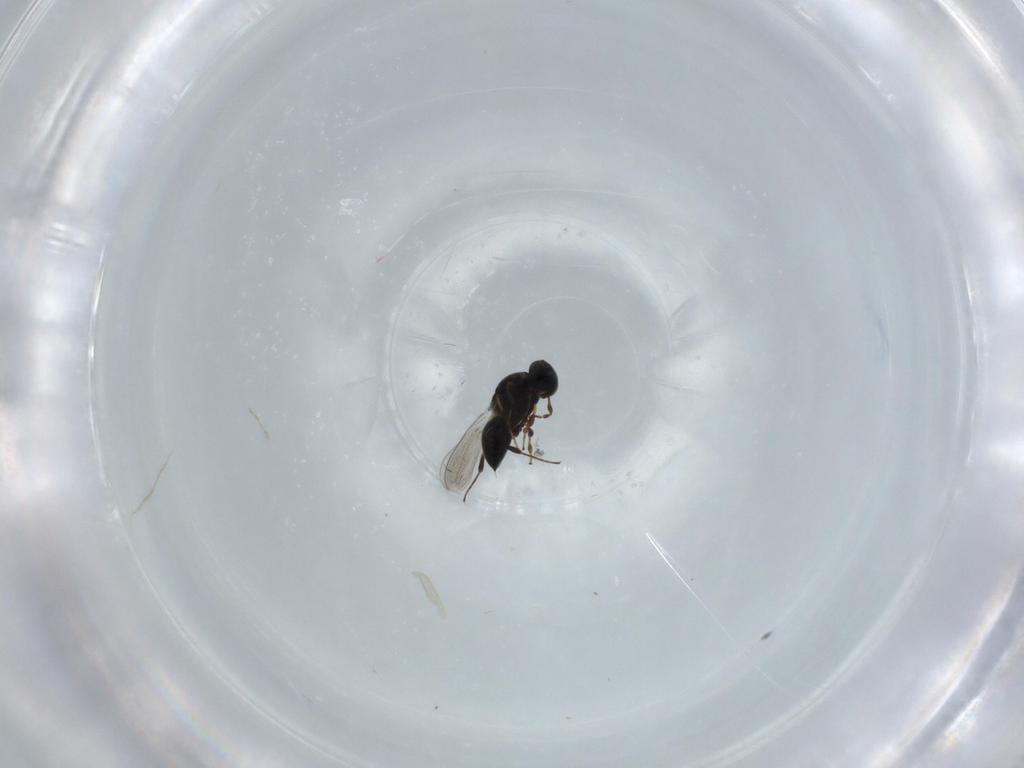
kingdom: Animalia
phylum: Arthropoda
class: Insecta
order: Hymenoptera
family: Platygastridae
